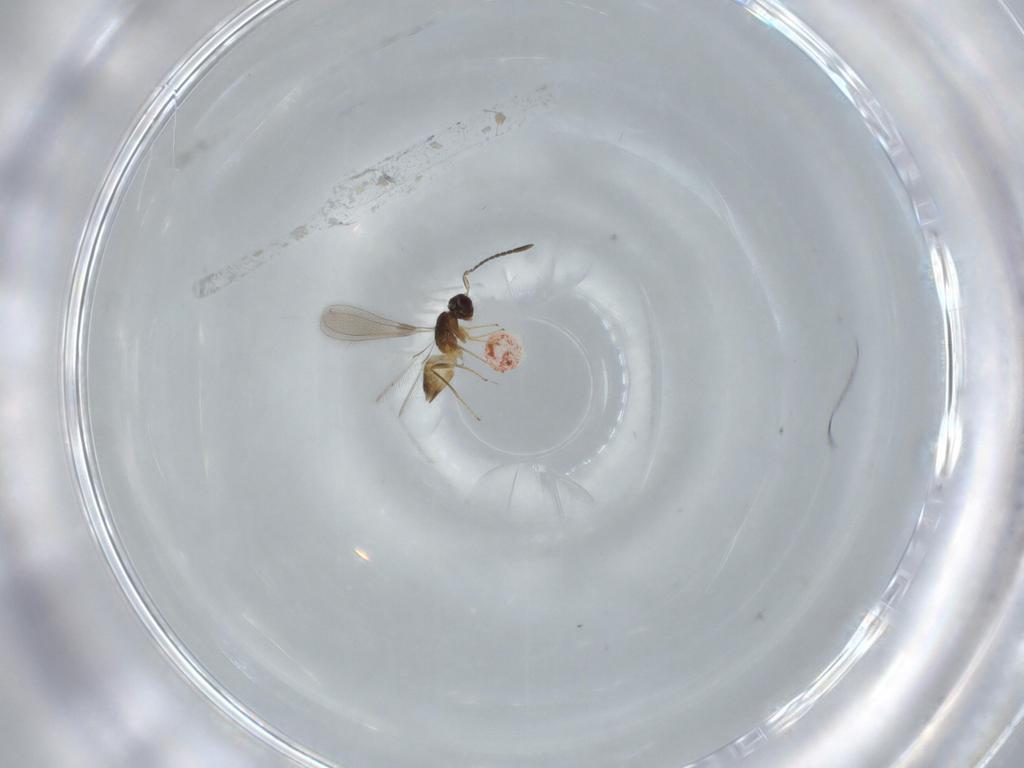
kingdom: Animalia
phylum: Arthropoda
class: Insecta
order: Hymenoptera
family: Mymaridae
